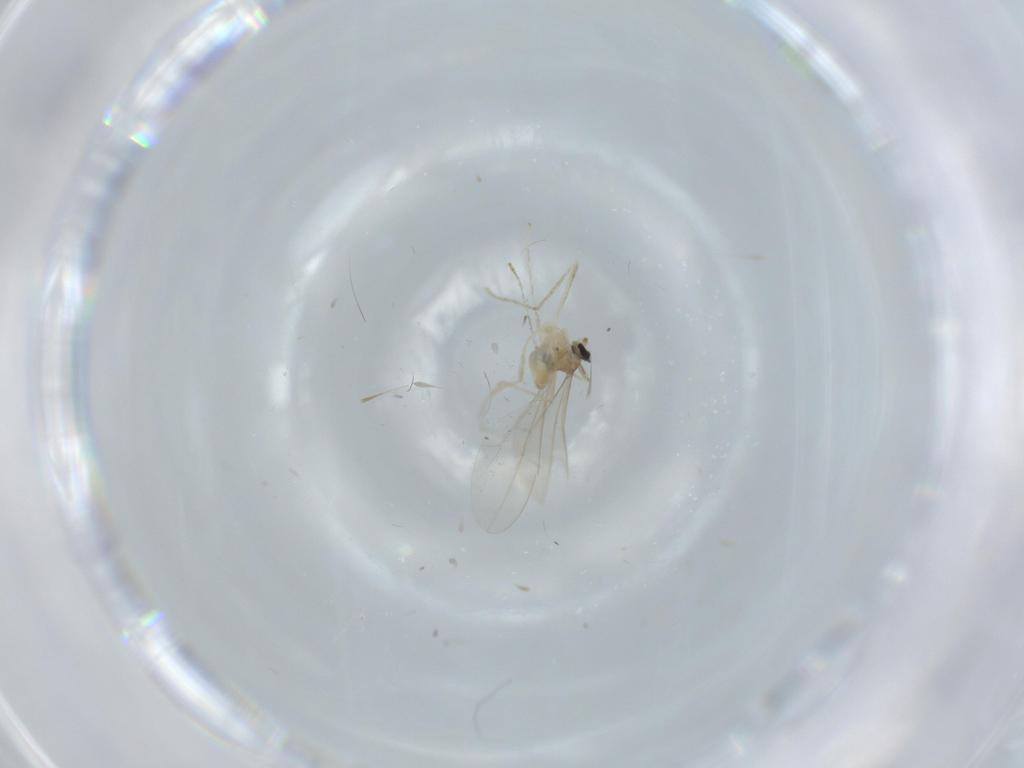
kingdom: Animalia
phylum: Arthropoda
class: Insecta
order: Diptera
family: Cecidomyiidae
